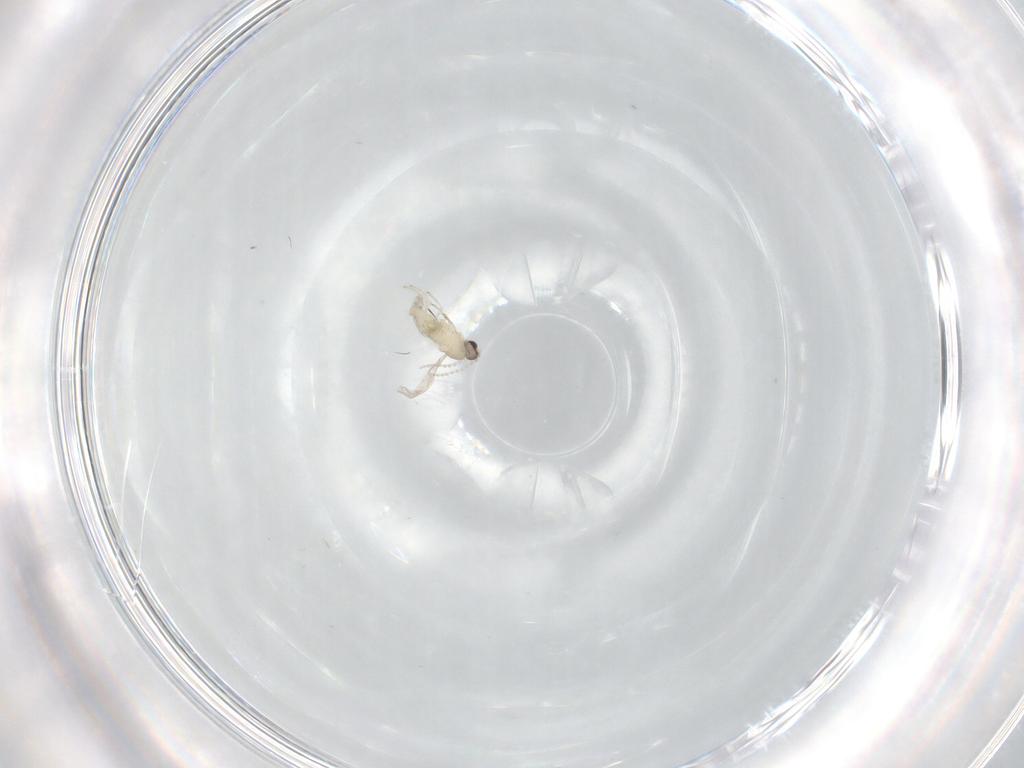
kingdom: Animalia
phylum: Arthropoda
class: Insecta
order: Diptera
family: Cecidomyiidae
